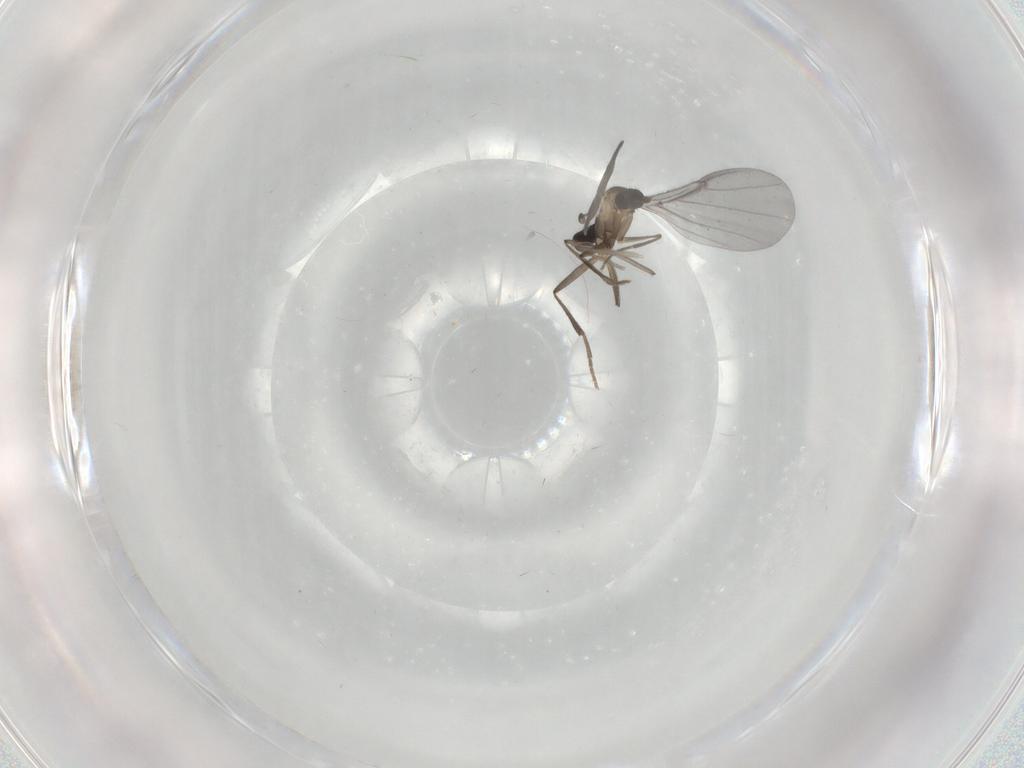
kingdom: Animalia
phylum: Arthropoda
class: Insecta
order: Diptera
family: Phoridae
